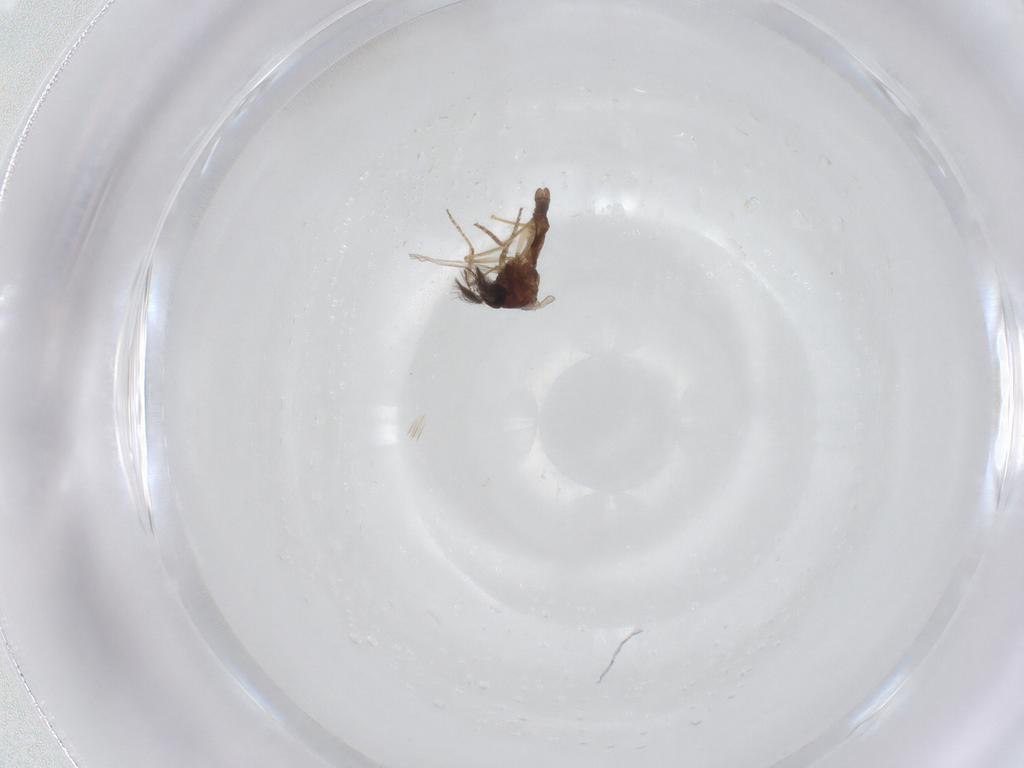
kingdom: Animalia
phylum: Arthropoda
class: Insecta
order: Diptera
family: Ceratopogonidae
